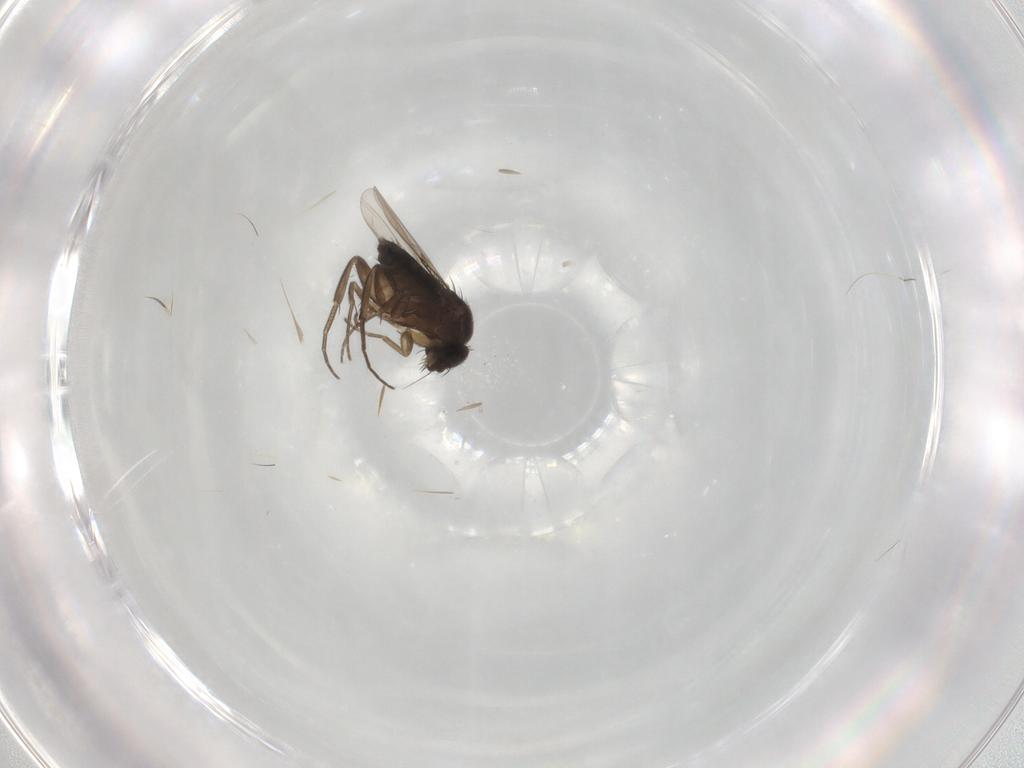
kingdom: Animalia
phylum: Arthropoda
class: Insecta
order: Diptera
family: Phoridae
